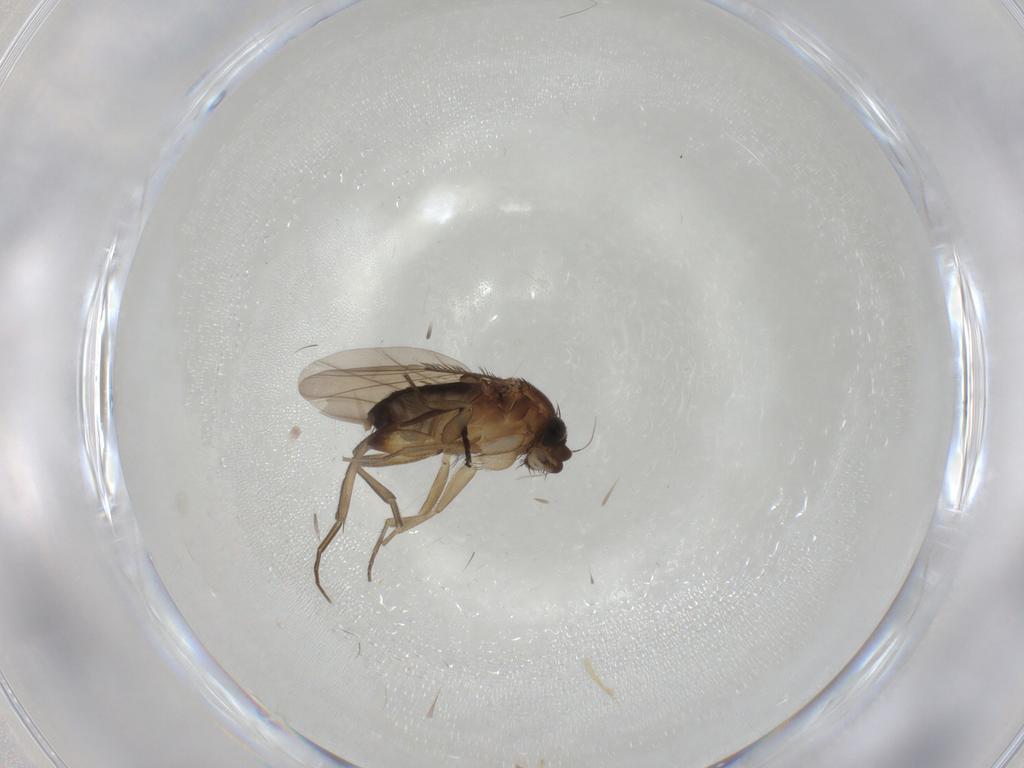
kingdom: Animalia
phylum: Arthropoda
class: Insecta
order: Diptera
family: Phoridae
